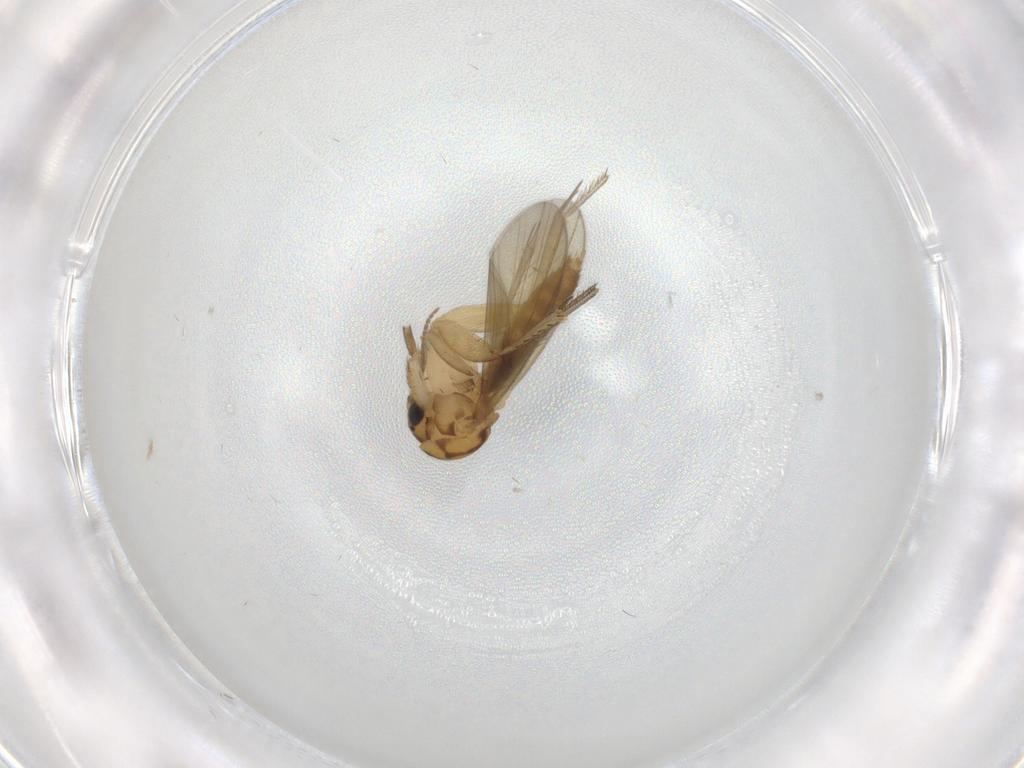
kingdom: Animalia
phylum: Arthropoda
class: Insecta
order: Diptera
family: Mycetophilidae
